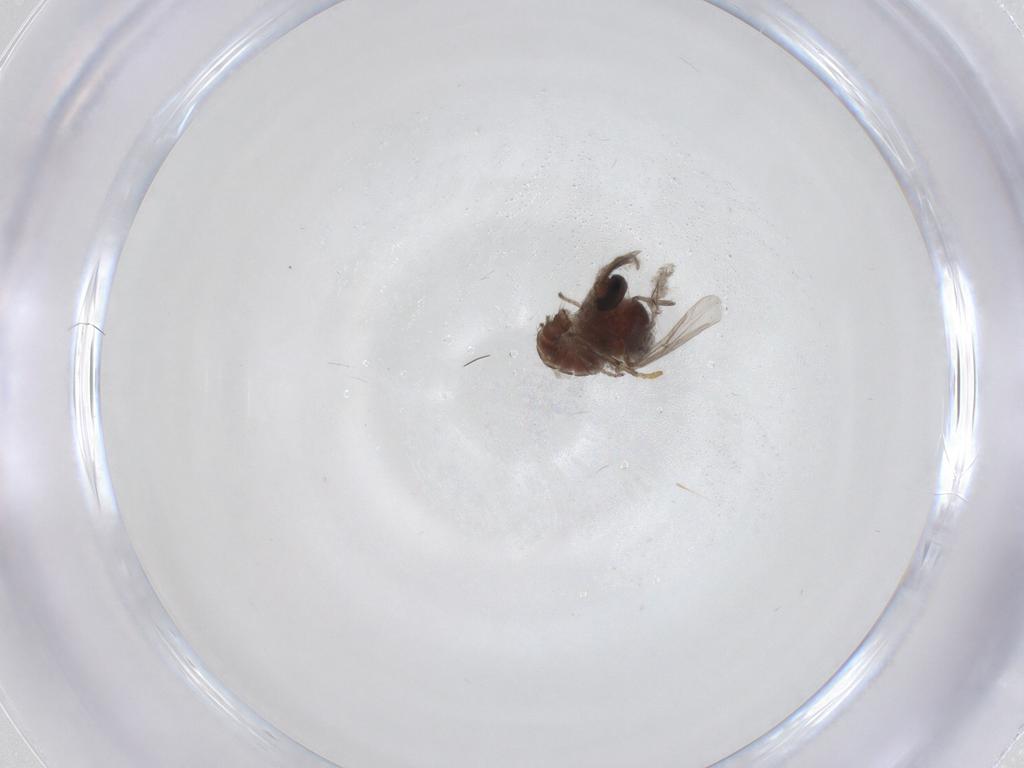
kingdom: Animalia
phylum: Arthropoda
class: Insecta
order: Diptera
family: Ceratopogonidae
